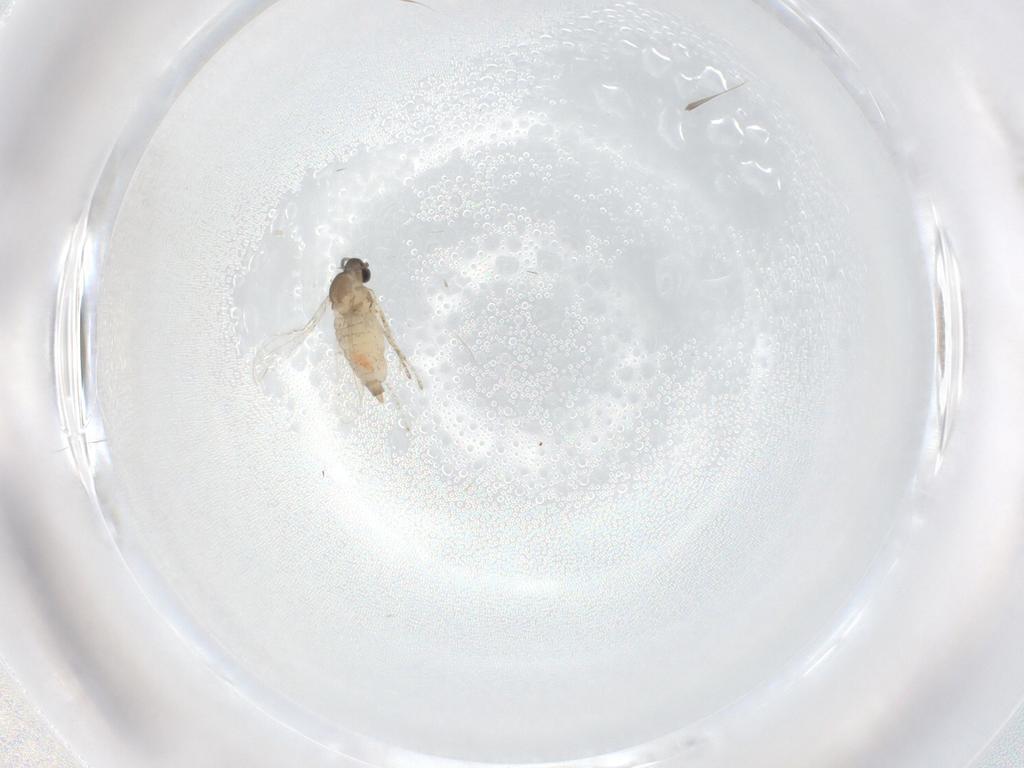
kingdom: Animalia
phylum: Arthropoda
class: Insecta
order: Diptera
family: Cecidomyiidae
